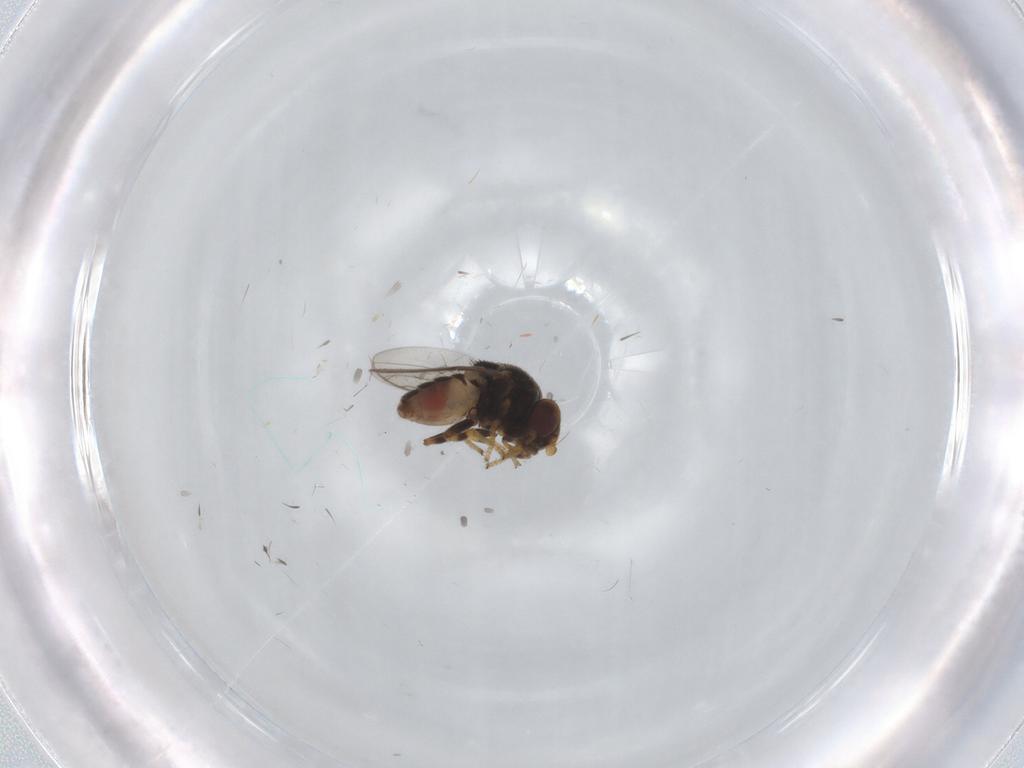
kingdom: Animalia
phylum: Arthropoda
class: Insecta
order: Diptera
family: Chloropidae
